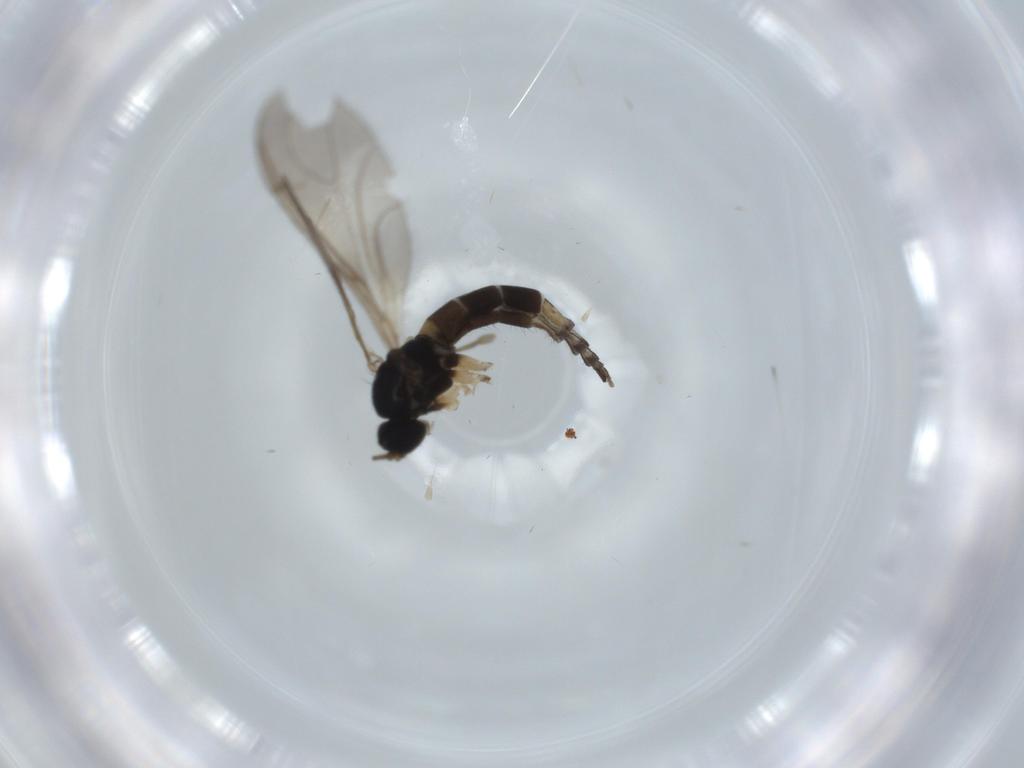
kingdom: Animalia
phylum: Arthropoda
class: Insecta
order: Diptera
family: Sciaridae
